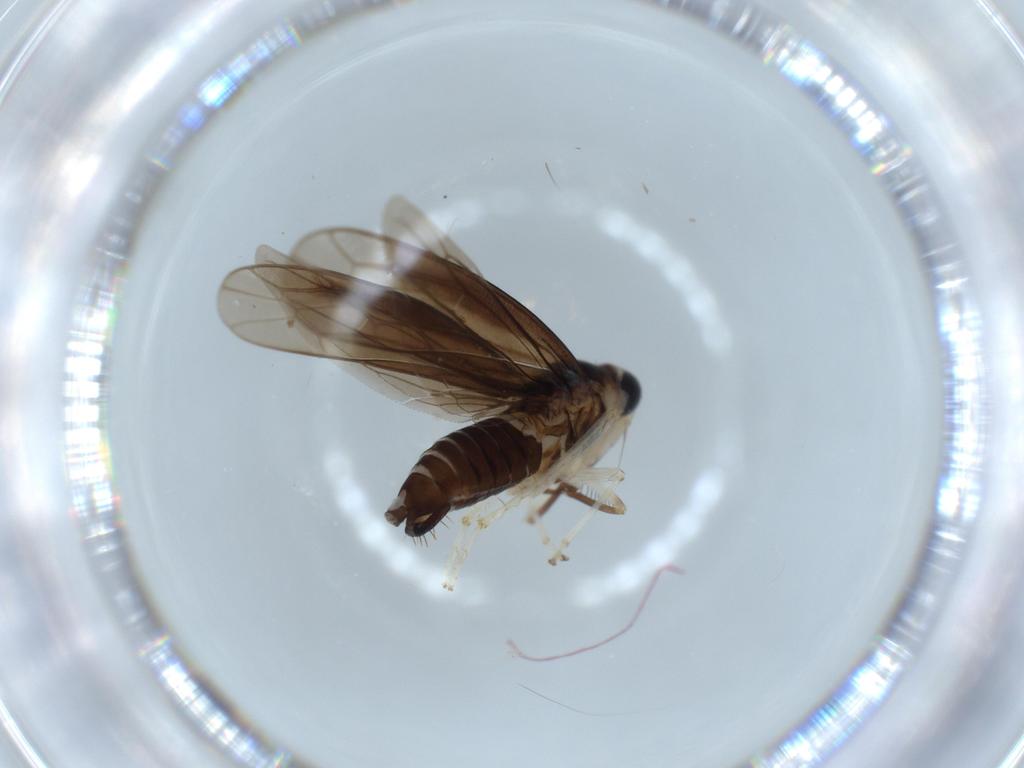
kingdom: Animalia
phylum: Arthropoda
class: Insecta
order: Hemiptera
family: Cicadellidae
